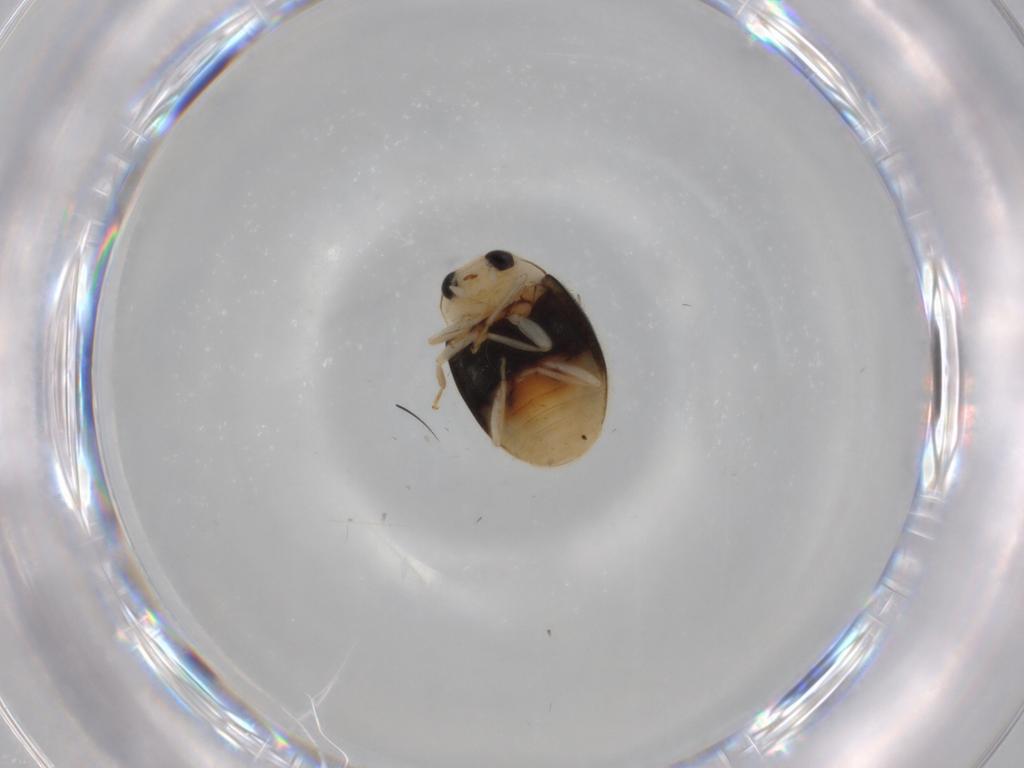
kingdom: Animalia
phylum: Arthropoda
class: Insecta
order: Coleoptera
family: Coccinellidae
